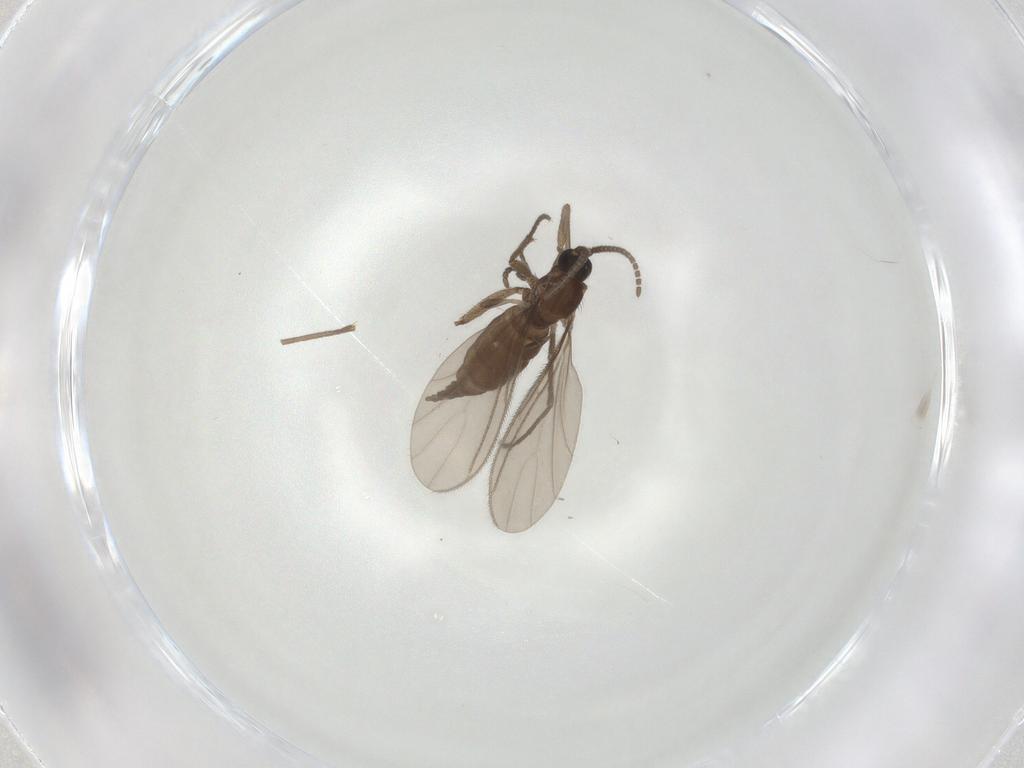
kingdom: Animalia
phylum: Arthropoda
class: Insecta
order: Diptera
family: Sciaridae
